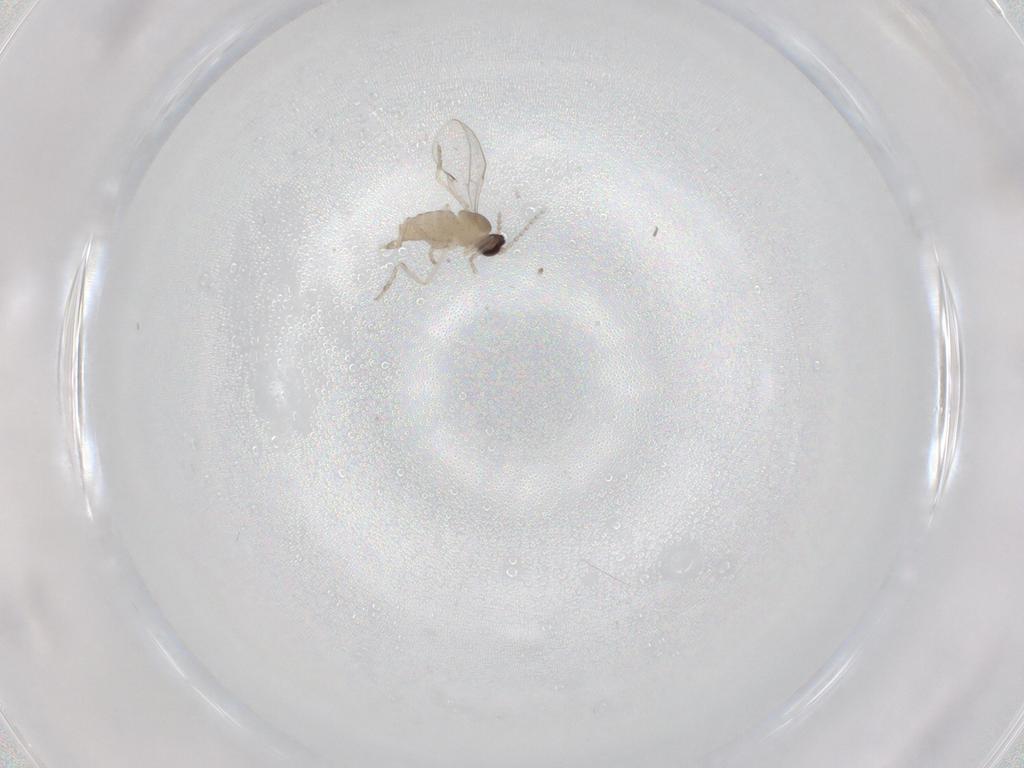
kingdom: Animalia
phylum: Arthropoda
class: Insecta
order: Diptera
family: Cecidomyiidae
